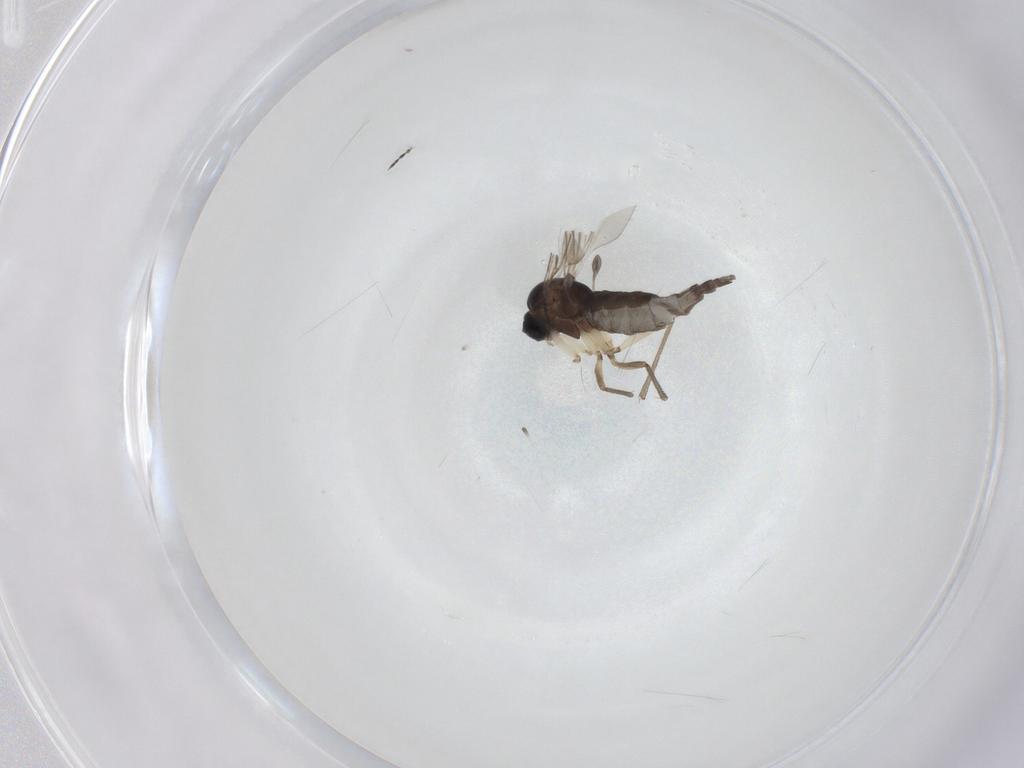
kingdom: Animalia
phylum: Arthropoda
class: Insecta
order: Diptera
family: Sciaridae
